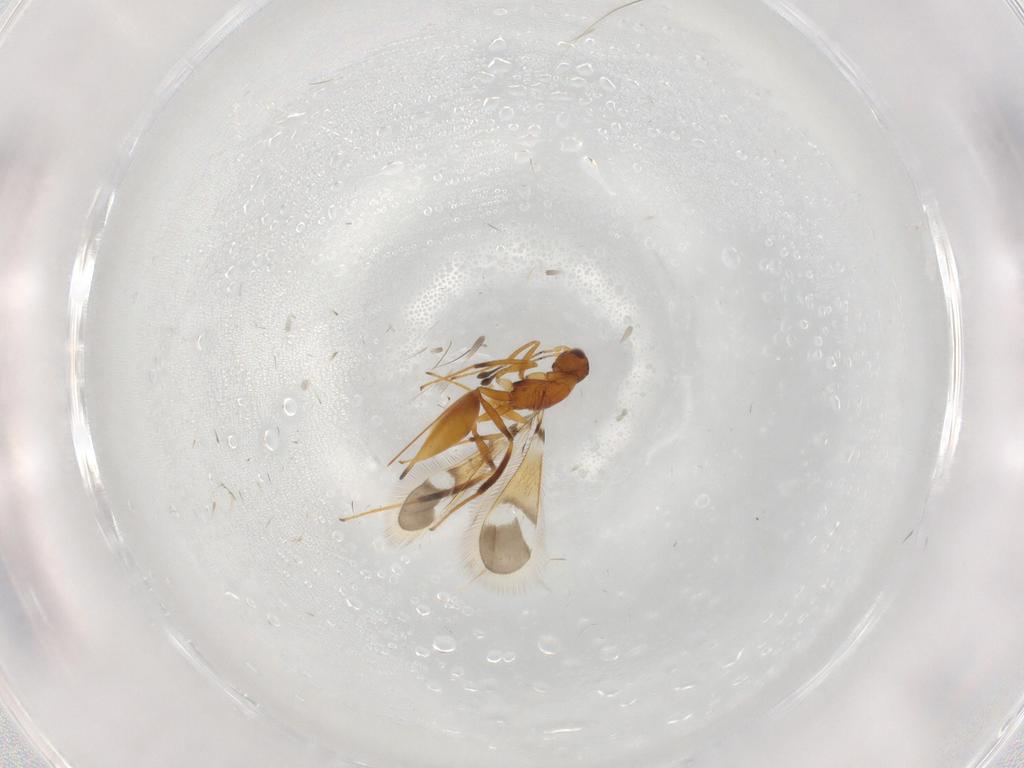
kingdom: Animalia
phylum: Arthropoda
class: Insecta
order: Hymenoptera
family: Mymaridae
